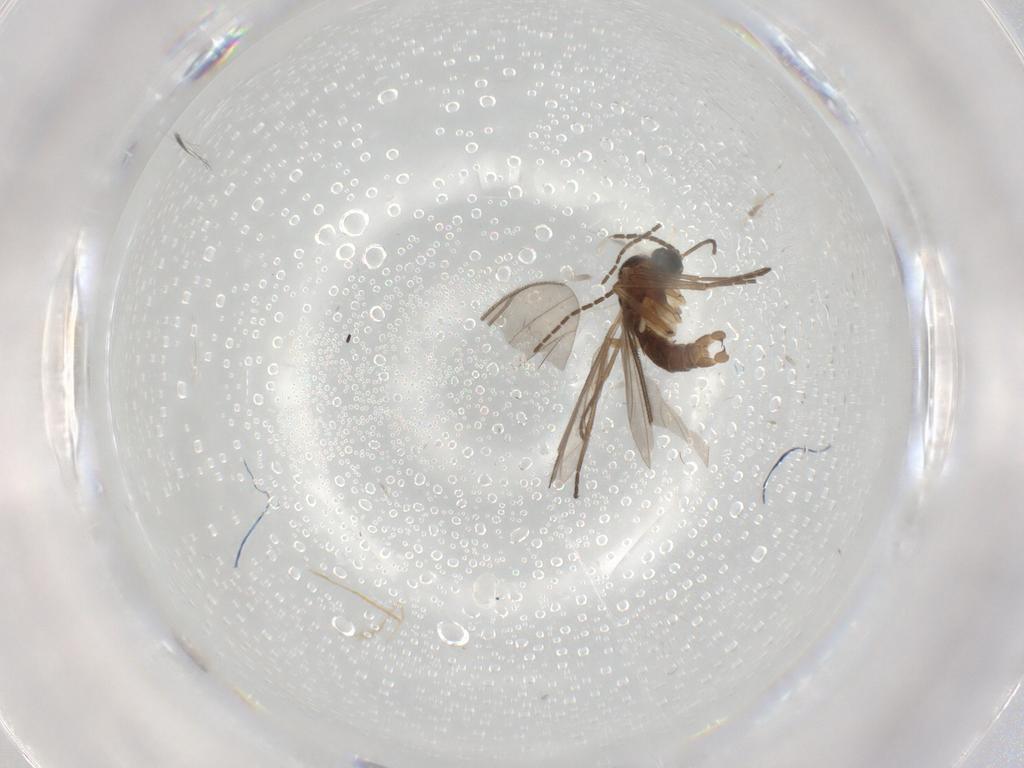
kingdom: Animalia
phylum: Arthropoda
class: Insecta
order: Diptera
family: Sciaridae
